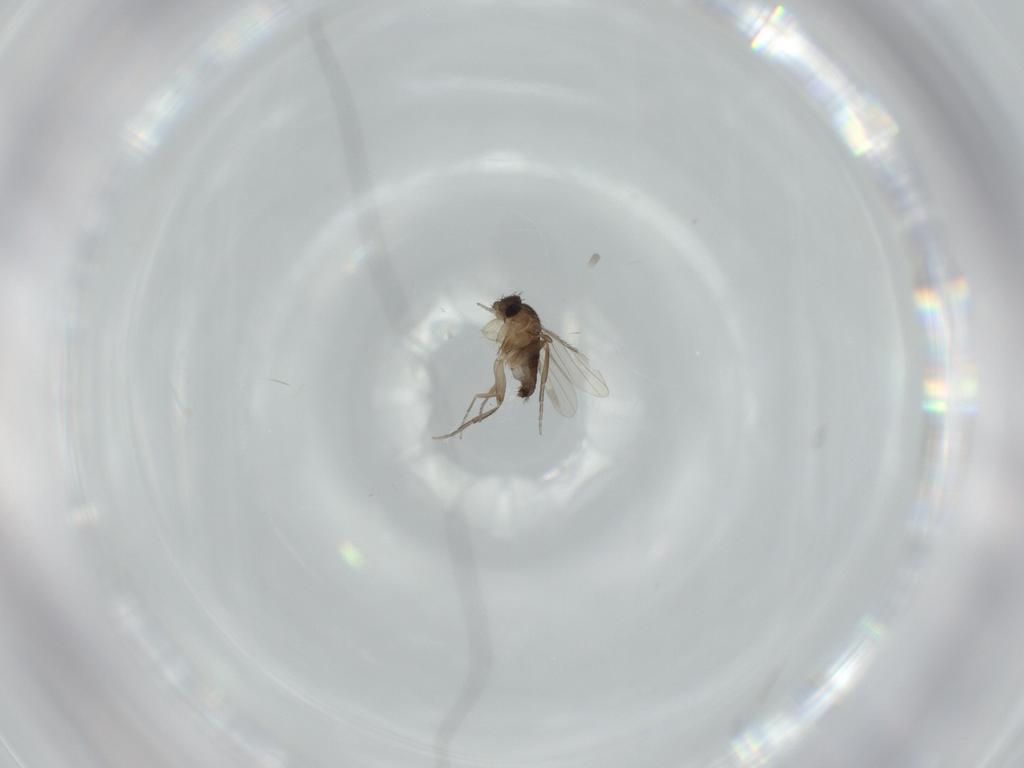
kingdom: Animalia
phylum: Arthropoda
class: Insecta
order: Diptera
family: Phoridae
